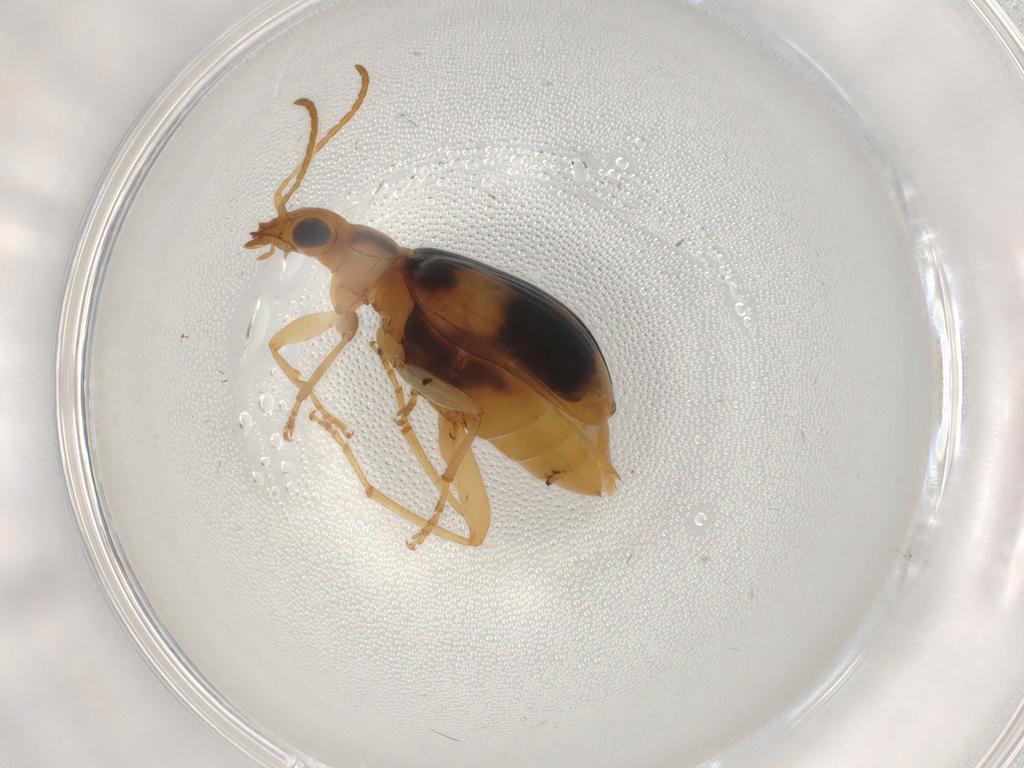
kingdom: Animalia
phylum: Arthropoda
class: Insecta
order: Coleoptera
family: Carabidae
